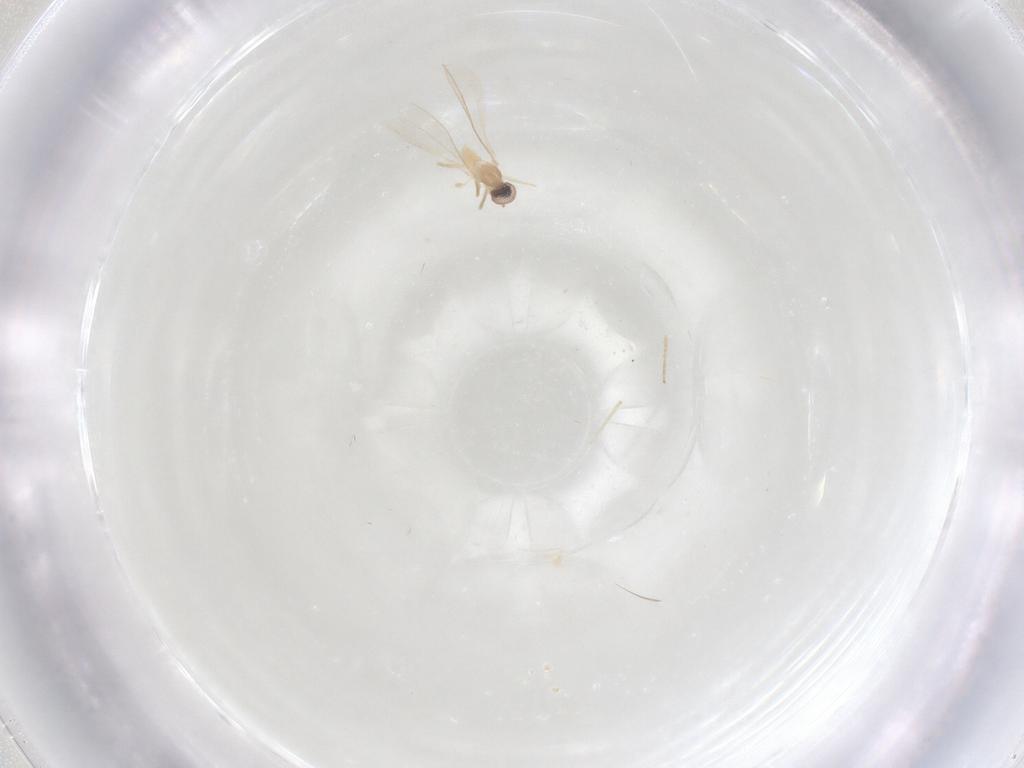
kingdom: Animalia
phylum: Arthropoda
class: Insecta
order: Diptera
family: Cecidomyiidae
